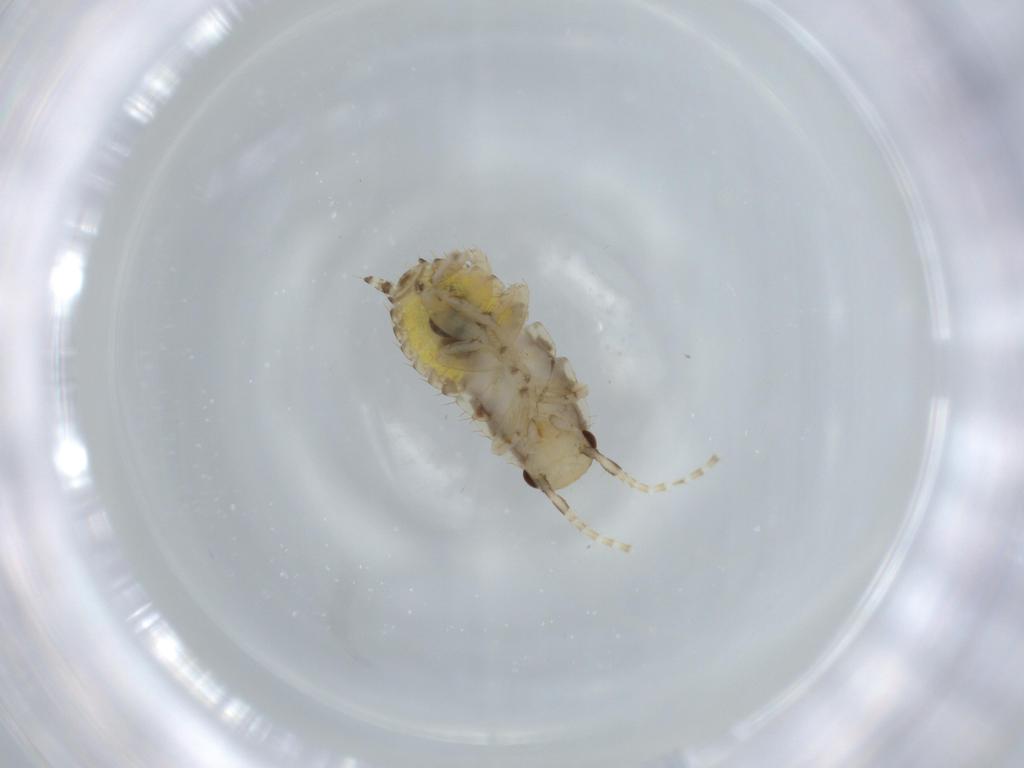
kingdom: Animalia
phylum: Arthropoda
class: Insecta
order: Blattodea
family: Ectobiidae
